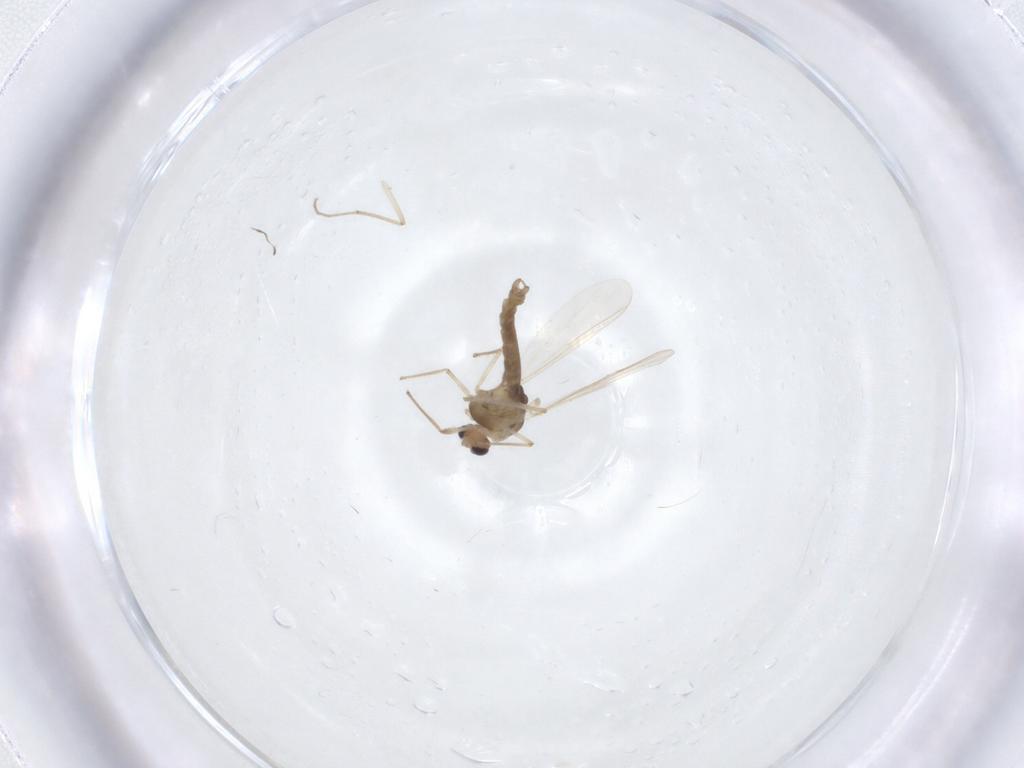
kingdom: Animalia
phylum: Arthropoda
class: Insecta
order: Diptera
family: Chironomidae
